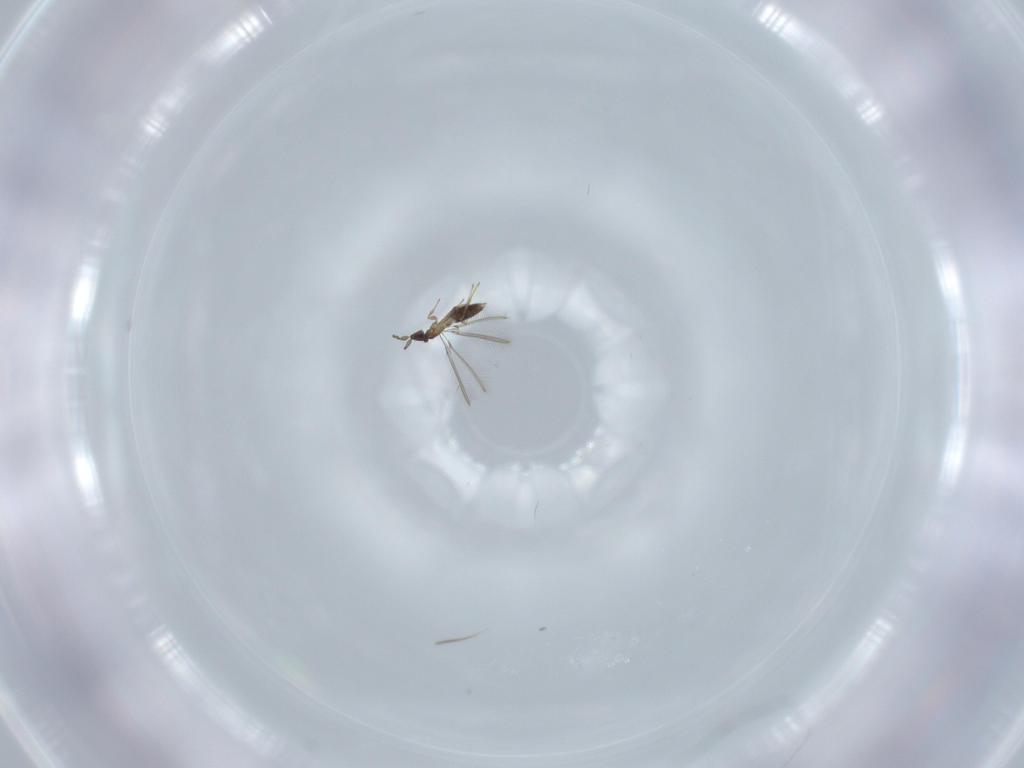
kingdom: Animalia
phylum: Arthropoda
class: Insecta
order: Hymenoptera
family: Mymaridae
